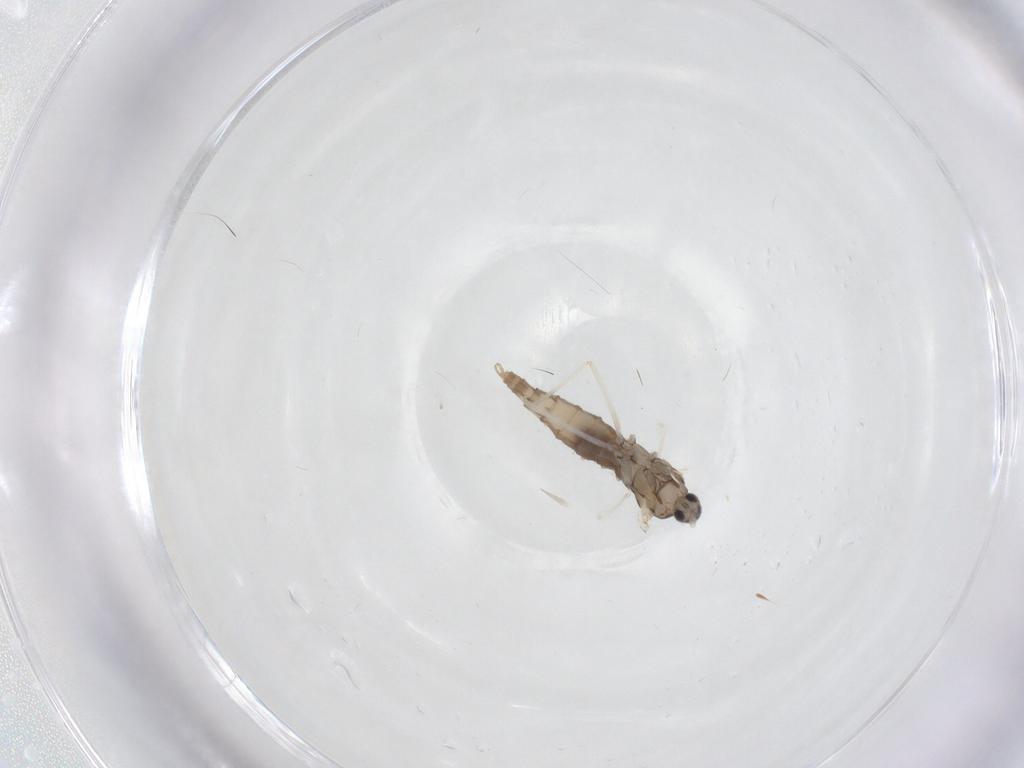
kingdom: Animalia
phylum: Arthropoda
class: Insecta
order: Diptera
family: Cecidomyiidae
